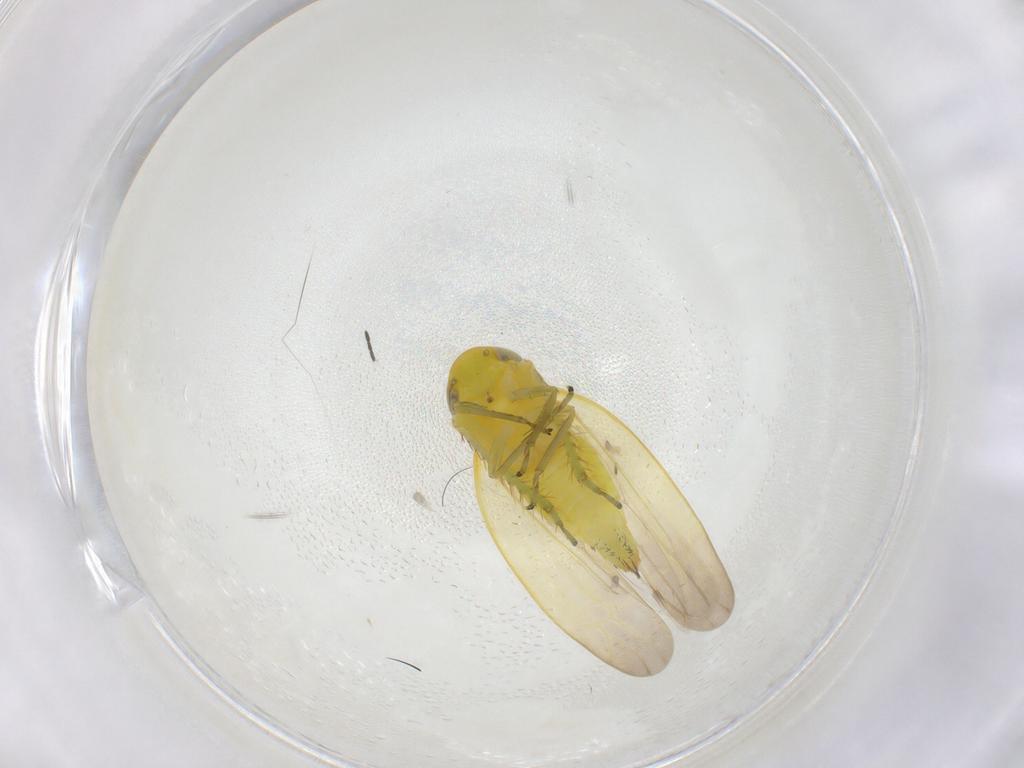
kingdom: Animalia
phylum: Arthropoda
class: Insecta
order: Hemiptera
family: Cicadellidae
